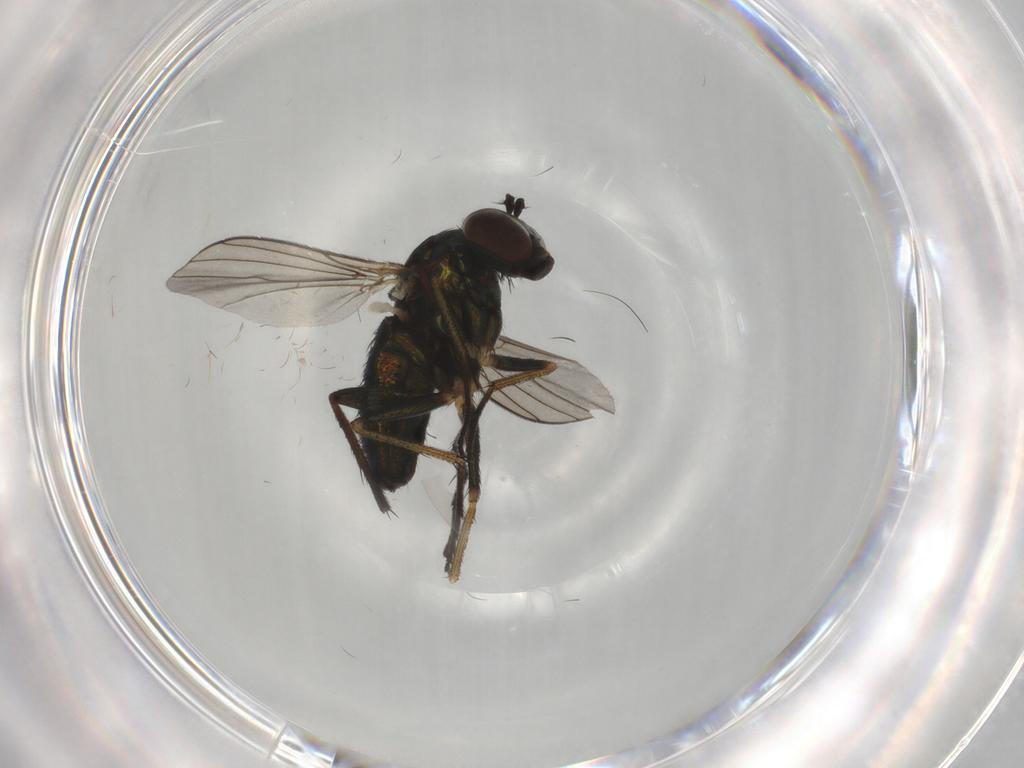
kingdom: Animalia
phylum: Arthropoda
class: Insecta
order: Diptera
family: Dolichopodidae
